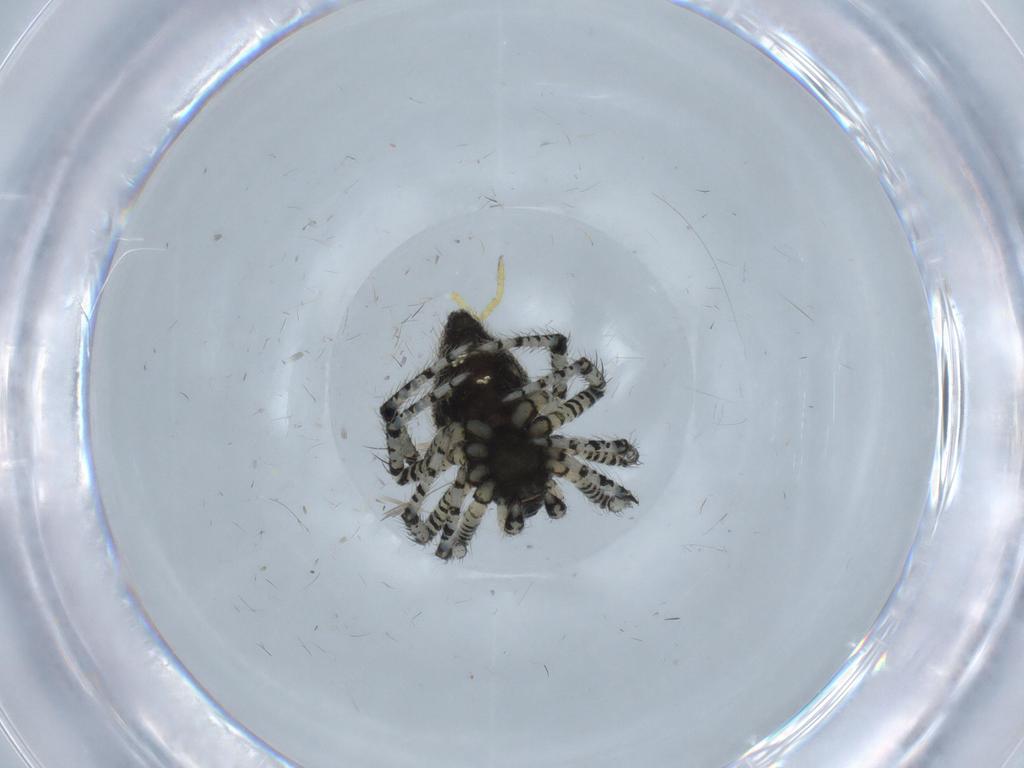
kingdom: Animalia
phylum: Arthropoda
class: Arachnida
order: Araneae
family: Theridiidae
